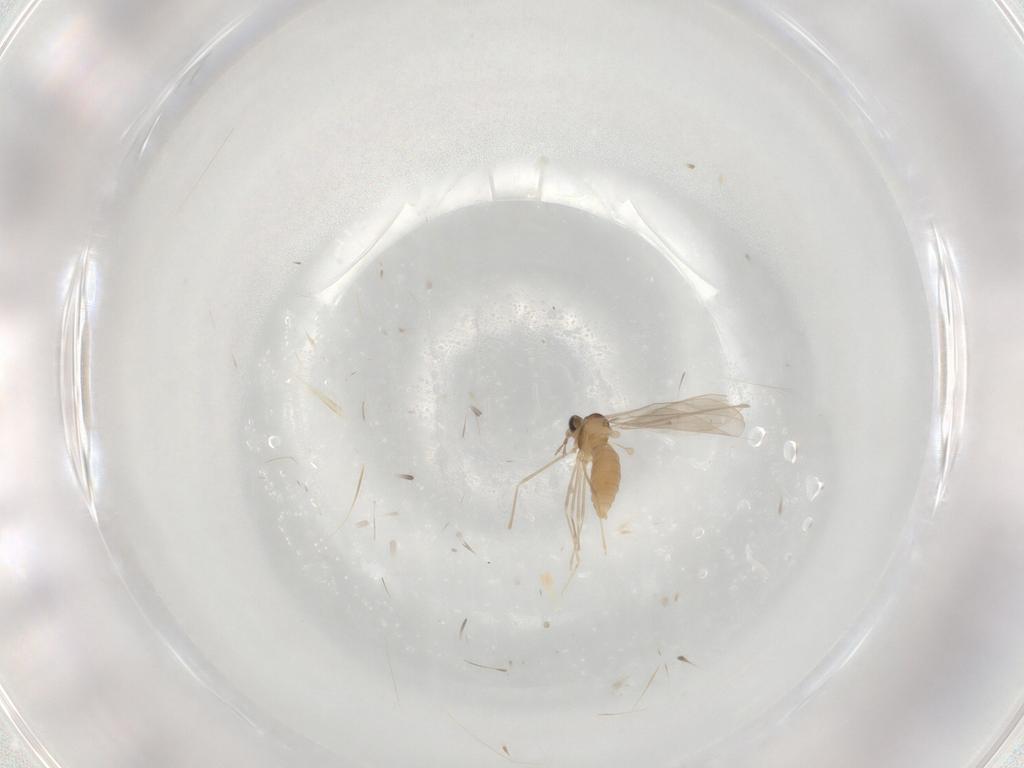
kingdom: Animalia
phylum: Arthropoda
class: Insecta
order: Diptera
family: Cecidomyiidae
